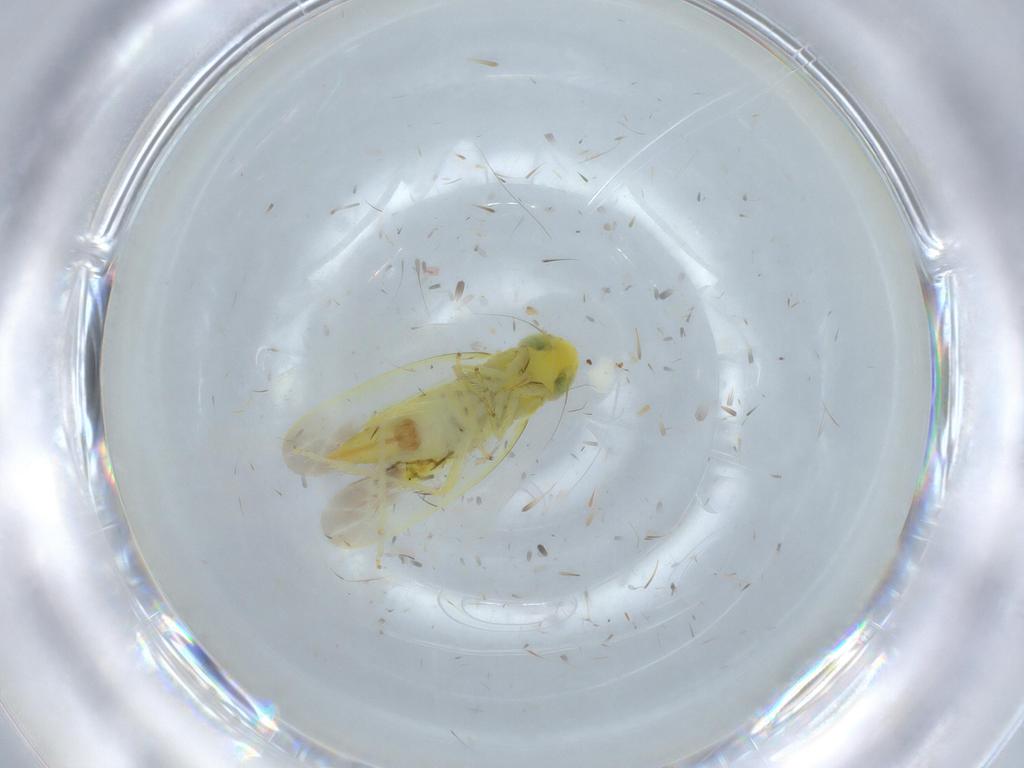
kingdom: Animalia
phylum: Arthropoda
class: Insecta
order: Hemiptera
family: Cicadellidae
